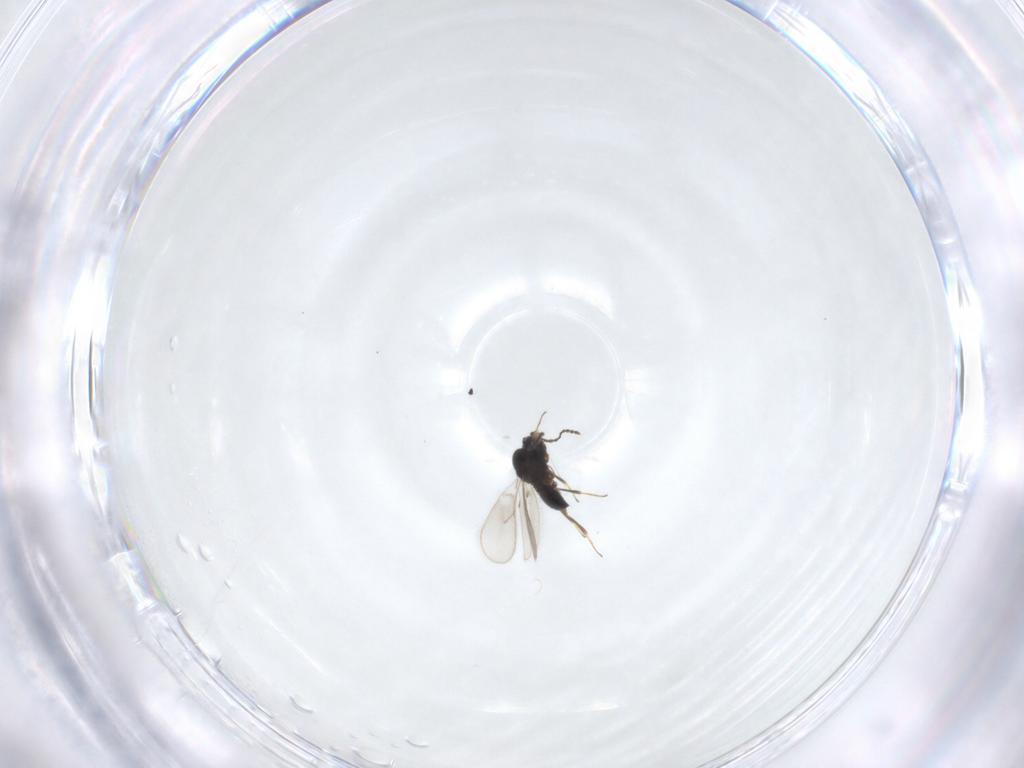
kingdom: Animalia
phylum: Arthropoda
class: Insecta
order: Hymenoptera
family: Scelionidae
